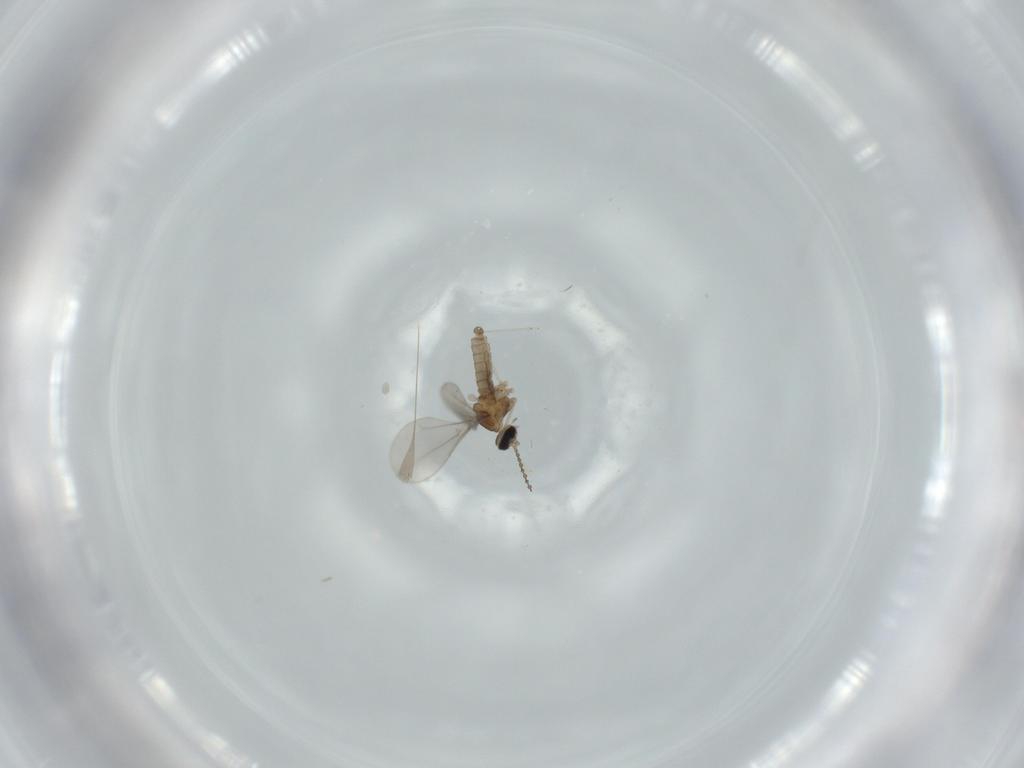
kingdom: Animalia
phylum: Arthropoda
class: Insecta
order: Diptera
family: Cecidomyiidae
